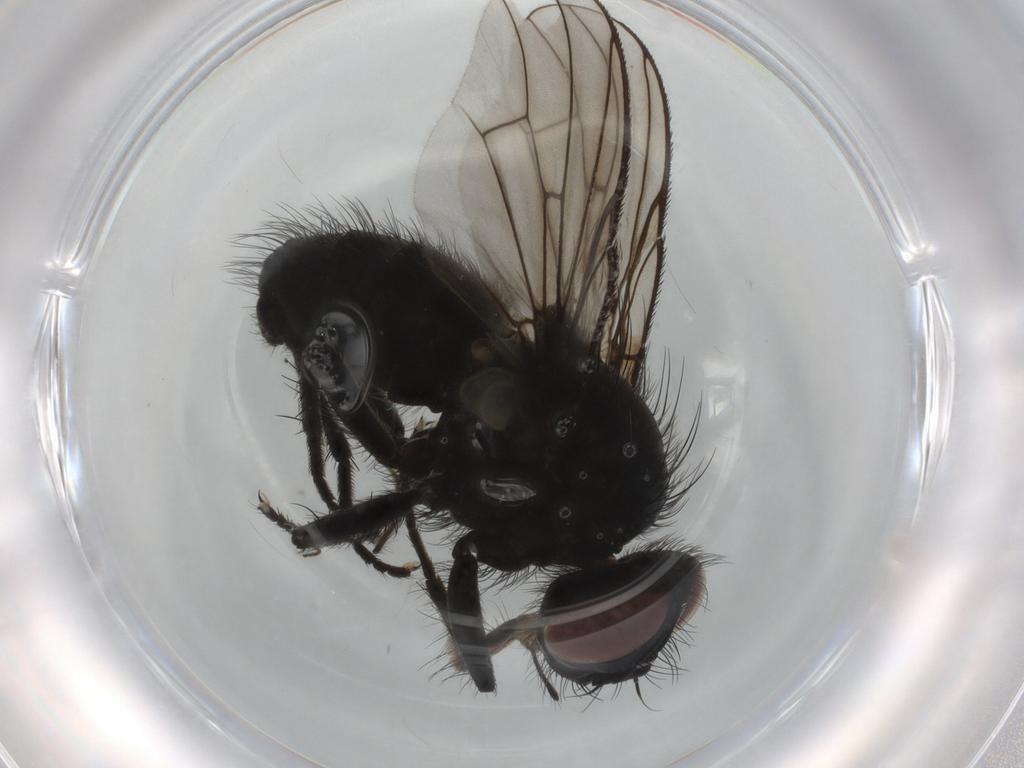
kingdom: Animalia
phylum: Arthropoda
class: Insecta
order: Diptera
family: Muscidae
